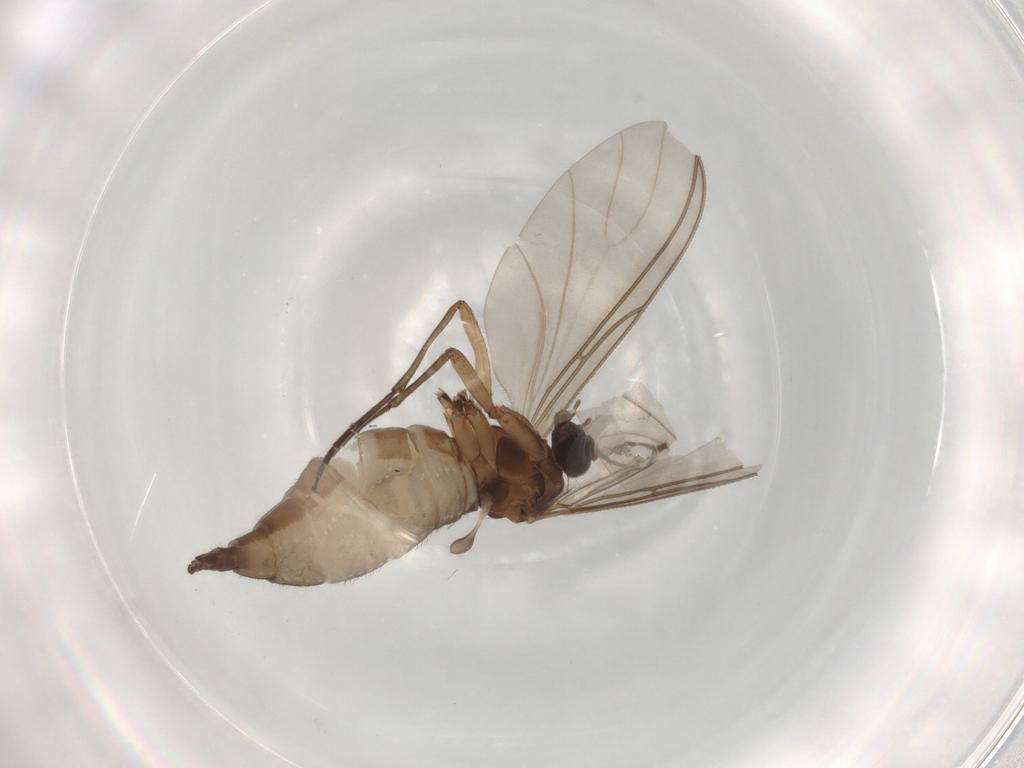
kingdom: Animalia
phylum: Arthropoda
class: Insecta
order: Diptera
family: Sciaridae
